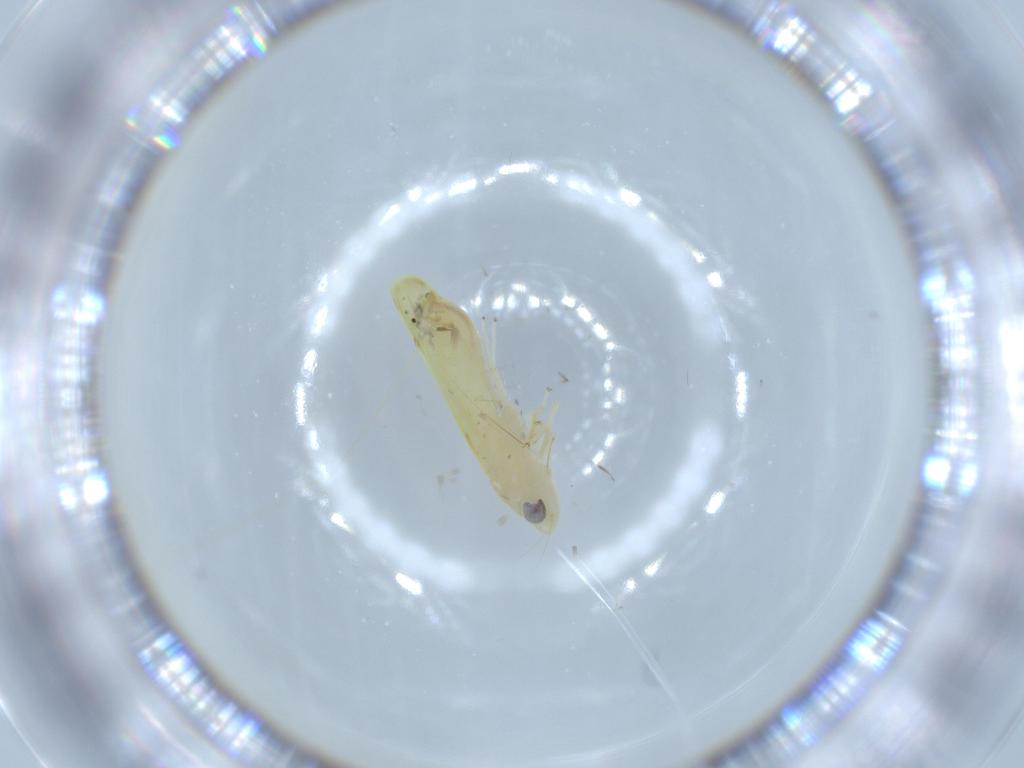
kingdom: Animalia
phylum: Arthropoda
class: Insecta
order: Hemiptera
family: Cicadellidae
